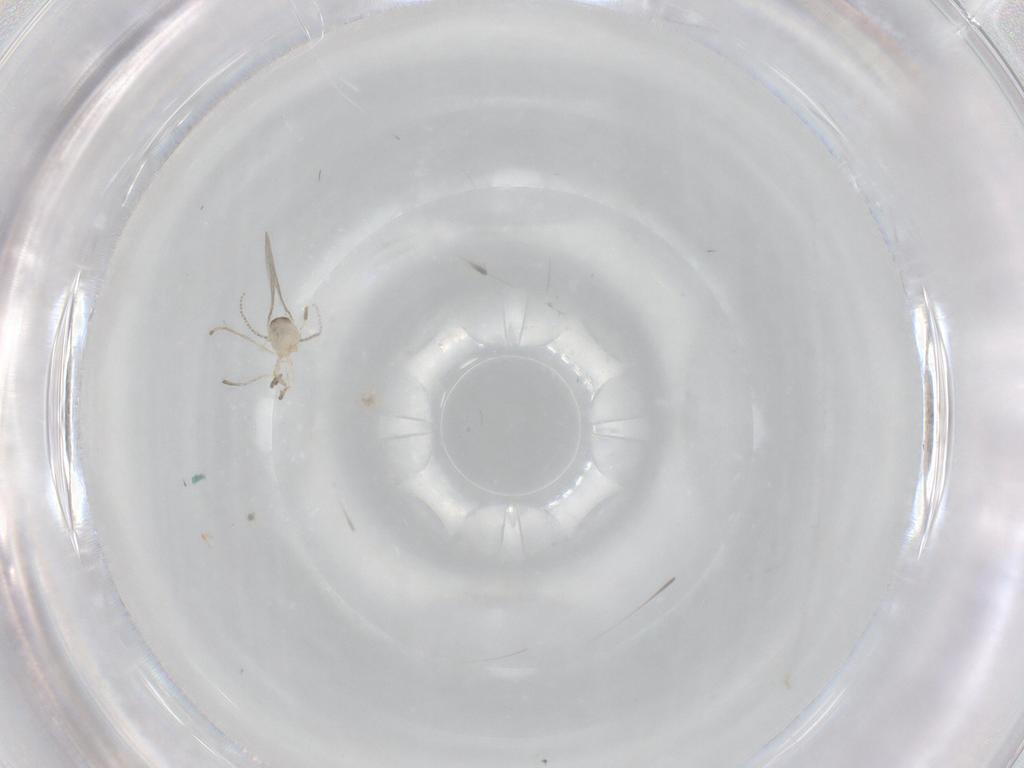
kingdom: Animalia
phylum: Arthropoda
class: Insecta
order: Diptera
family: Cecidomyiidae
